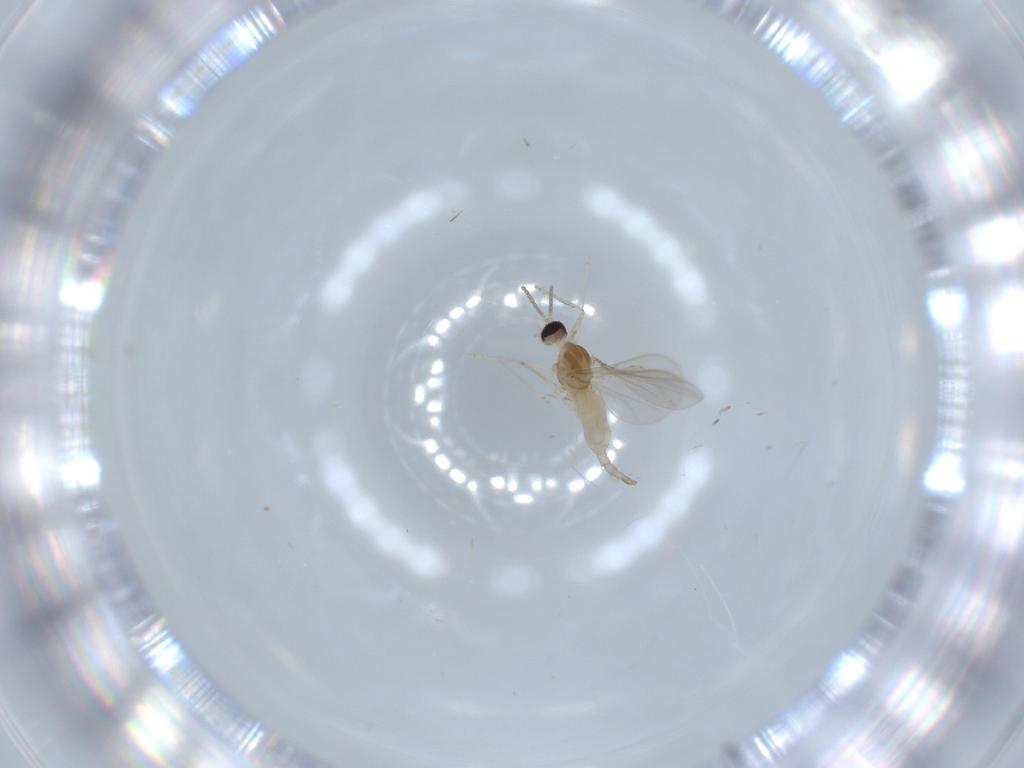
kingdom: Animalia
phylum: Arthropoda
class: Insecta
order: Diptera
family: Cecidomyiidae
